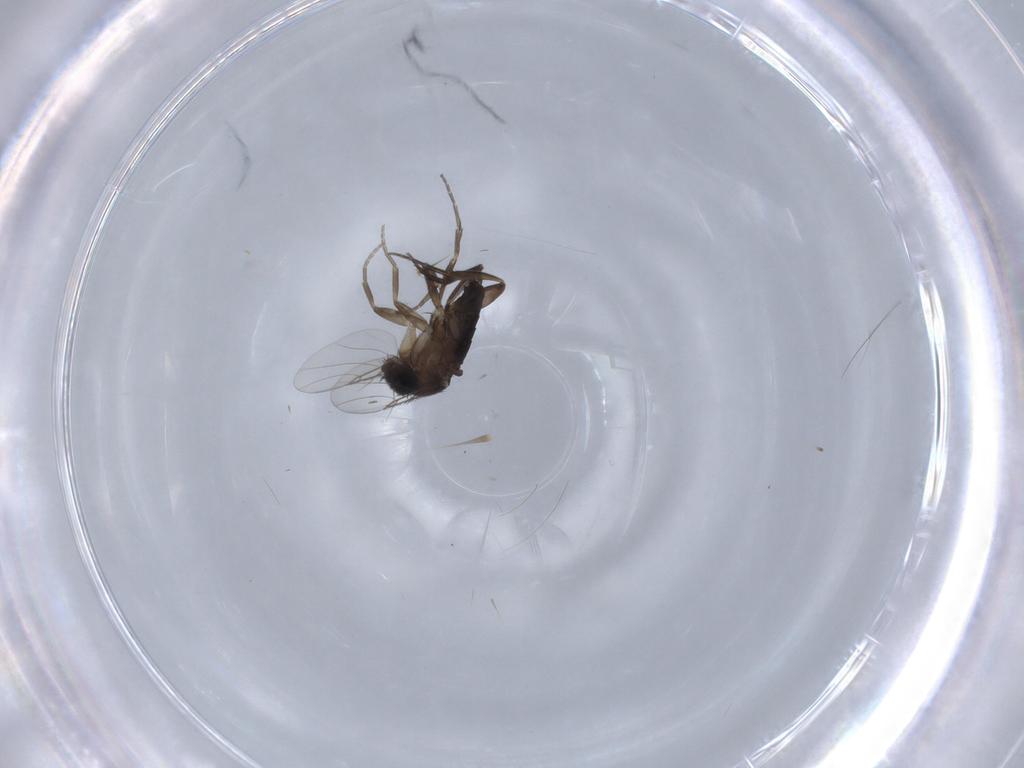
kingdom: Animalia
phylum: Arthropoda
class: Insecta
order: Diptera
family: Phoridae
